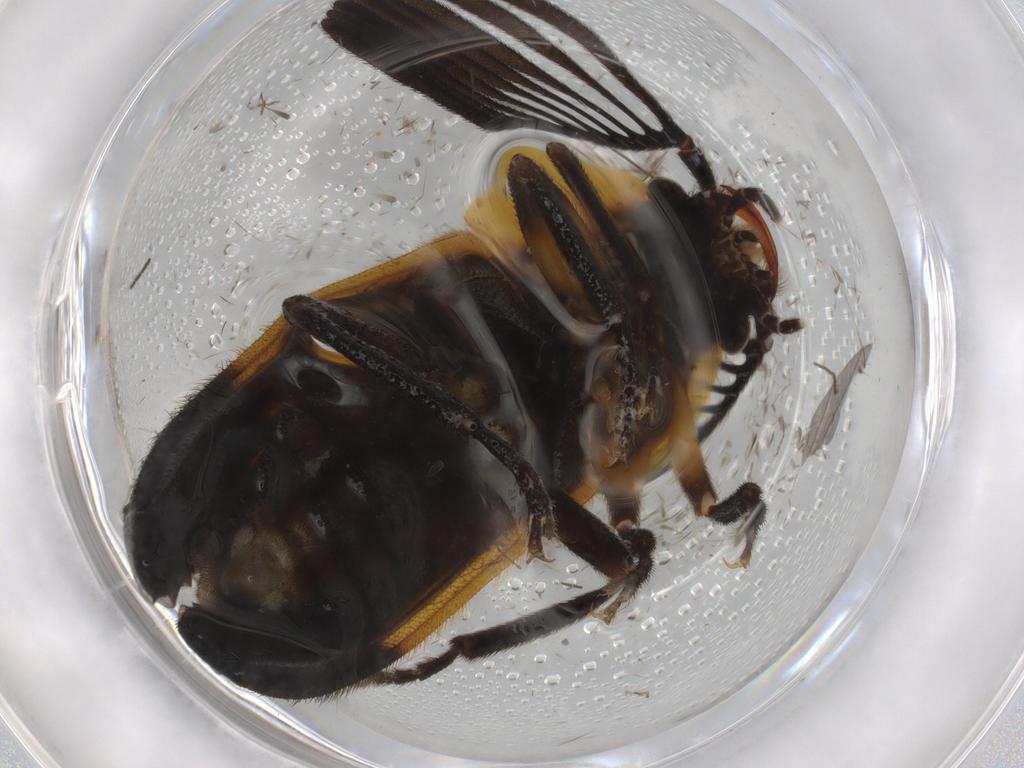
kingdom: Animalia
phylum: Arthropoda
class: Insecta
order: Coleoptera
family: Lampyridae
